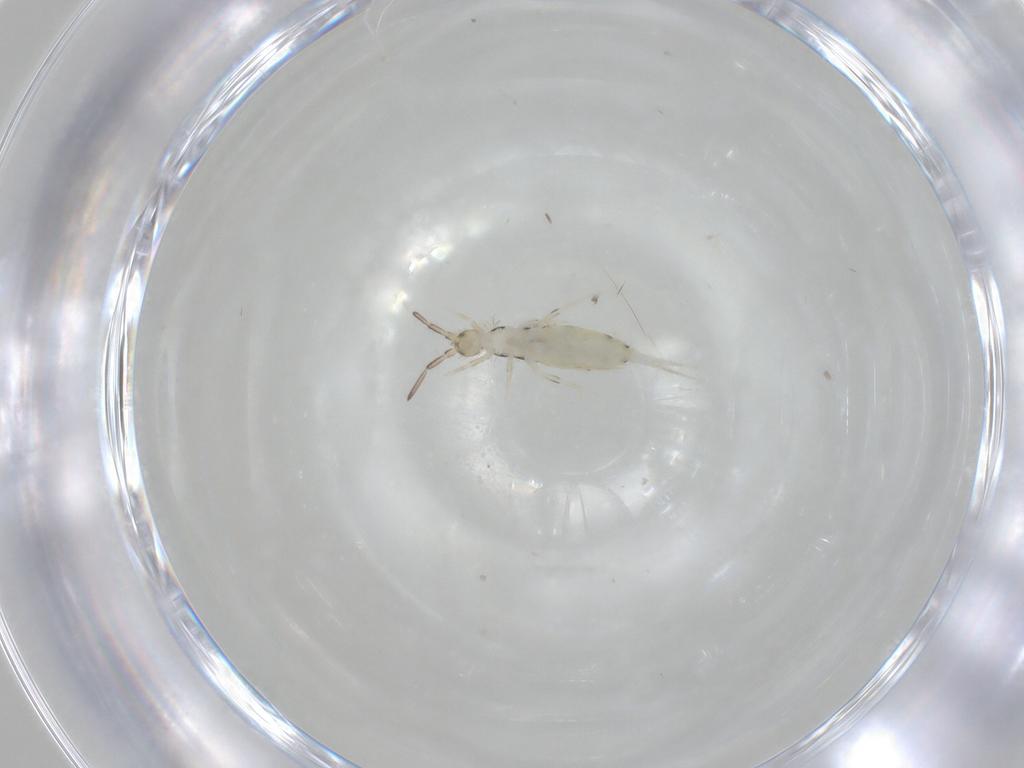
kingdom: Animalia
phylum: Arthropoda
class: Collembola
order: Entomobryomorpha
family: Entomobryidae
